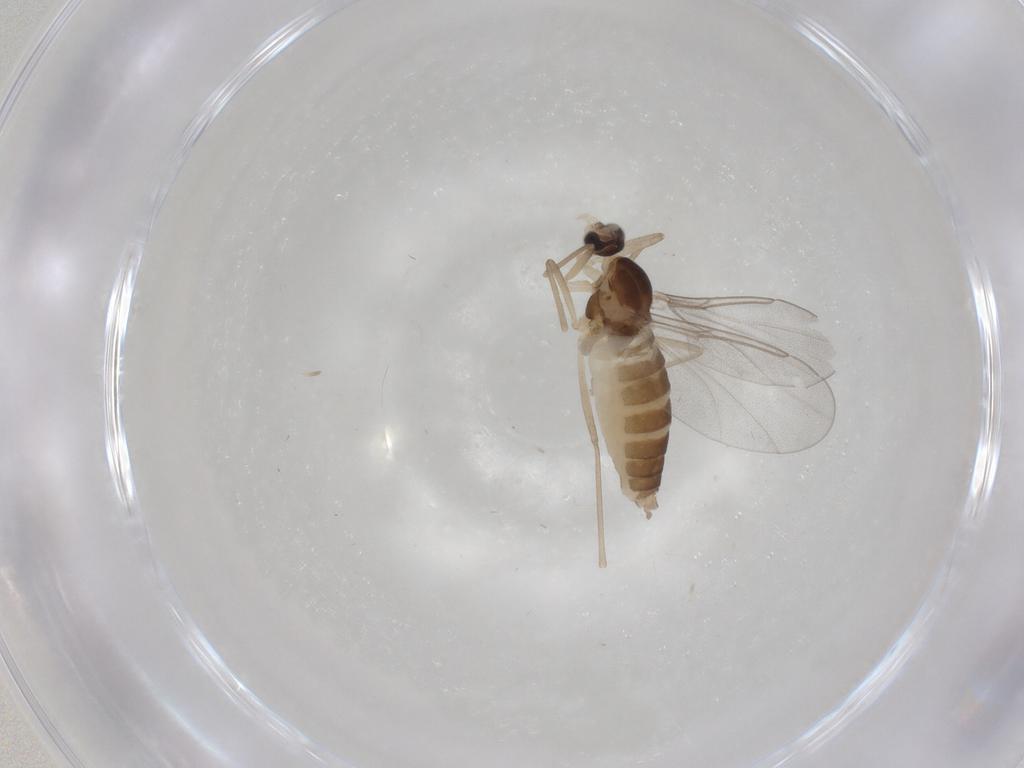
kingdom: Animalia
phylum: Arthropoda
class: Insecta
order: Diptera
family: Cecidomyiidae
